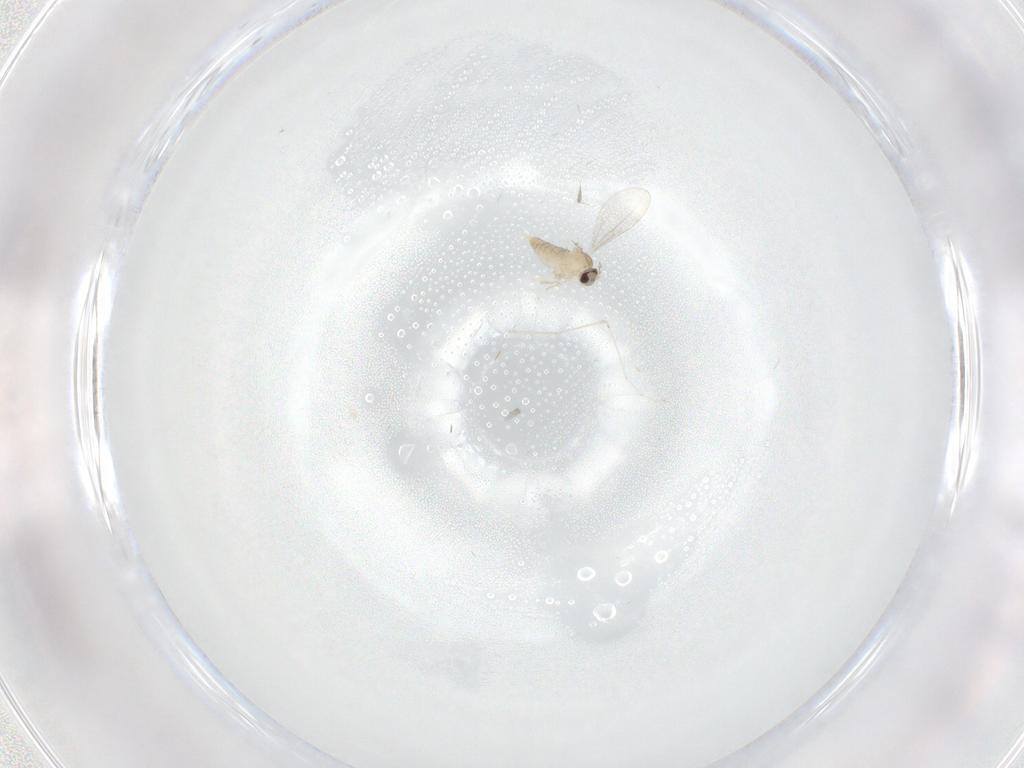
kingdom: Animalia
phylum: Arthropoda
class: Insecta
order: Diptera
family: Cecidomyiidae
